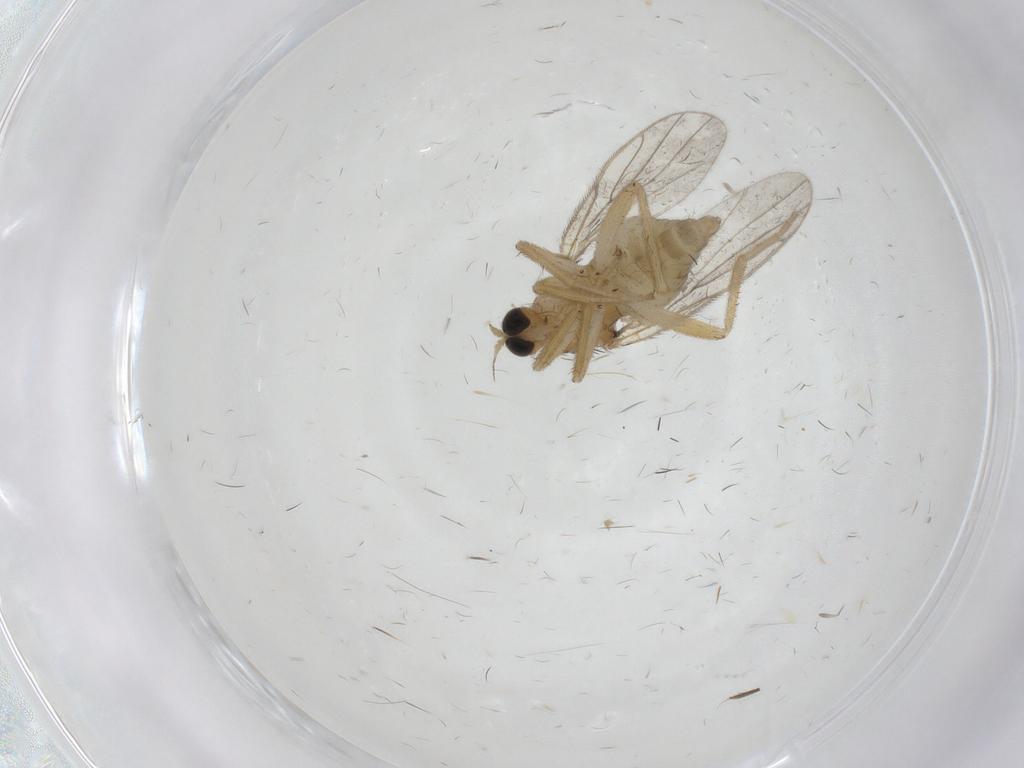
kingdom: Animalia
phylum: Arthropoda
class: Insecta
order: Diptera
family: Hybotidae
